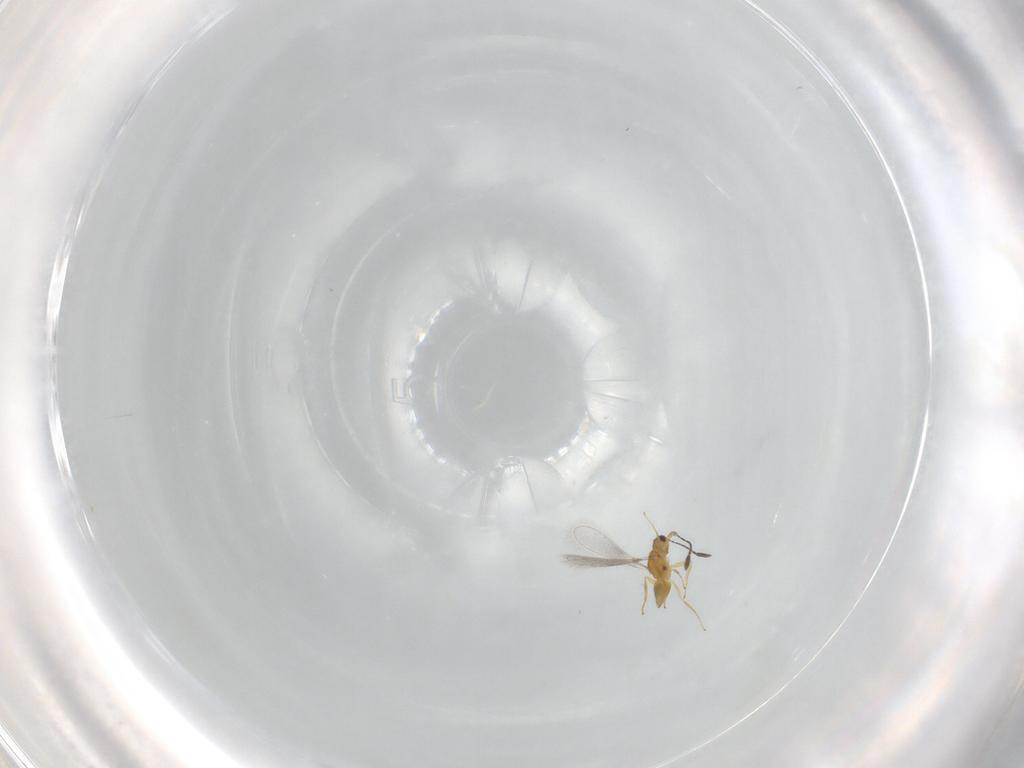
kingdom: Animalia
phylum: Arthropoda
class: Insecta
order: Hymenoptera
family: Mymaridae
